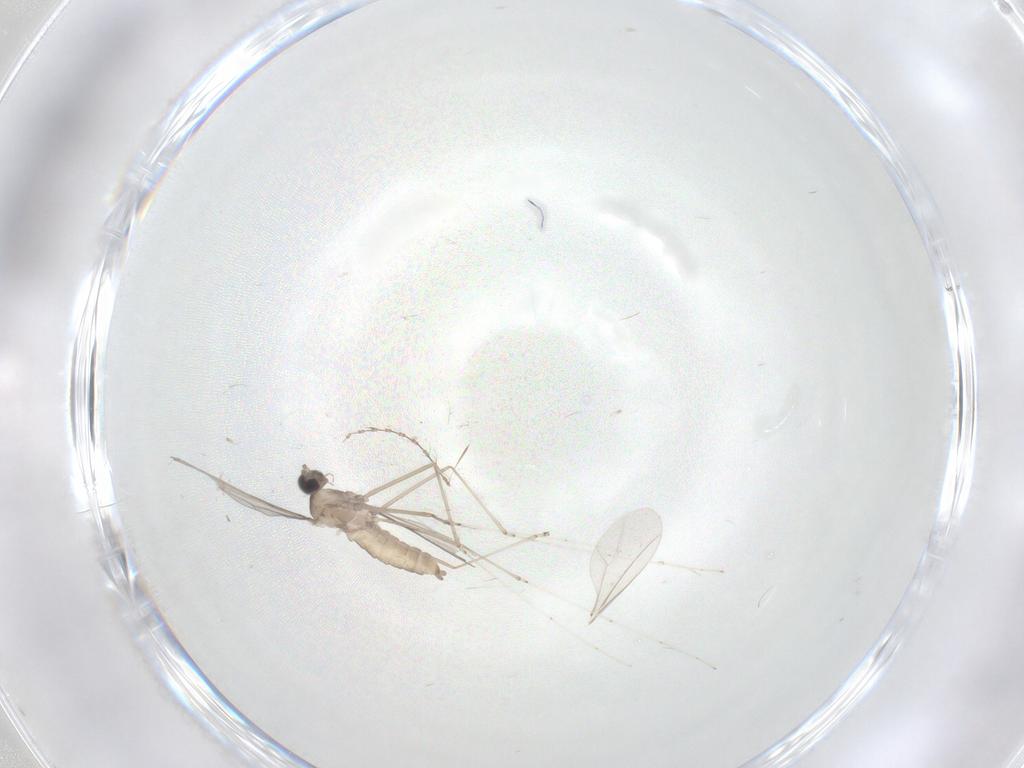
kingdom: Animalia
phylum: Arthropoda
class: Insecta
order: Diptera
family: Cecidomyiidae
